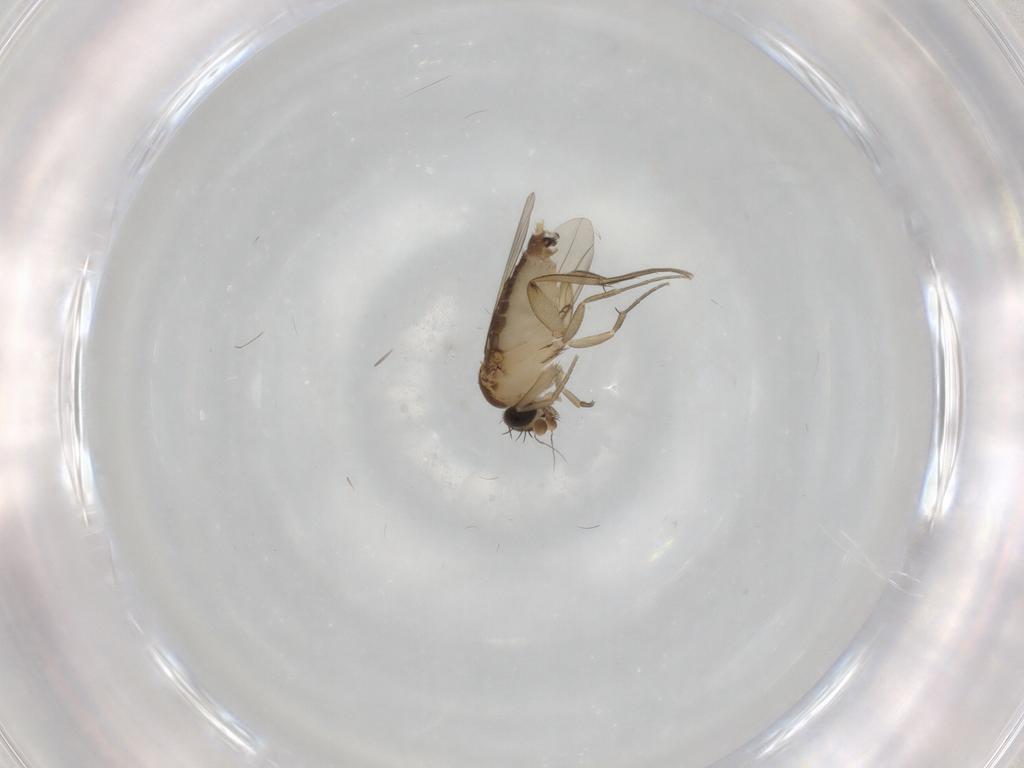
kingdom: Animalia
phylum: Arthropoda
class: Insecta
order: Diptera
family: Phoridae
